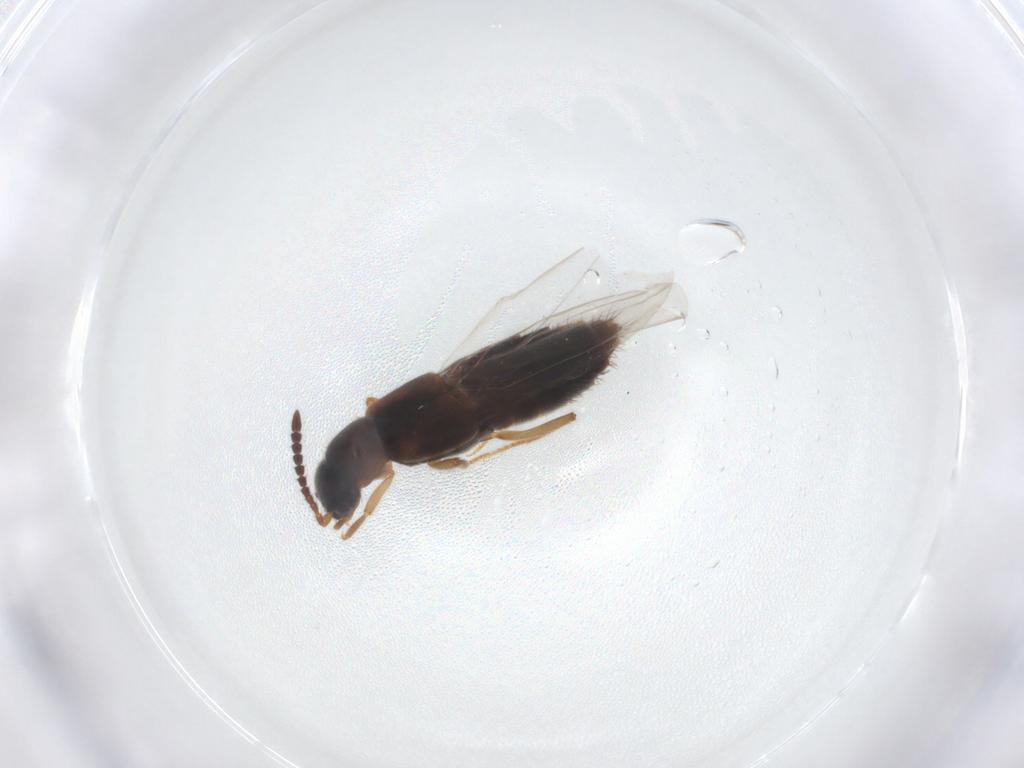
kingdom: Animalia
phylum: Arthropoda
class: Insecta
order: Coleoptera
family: Staphylinidae
